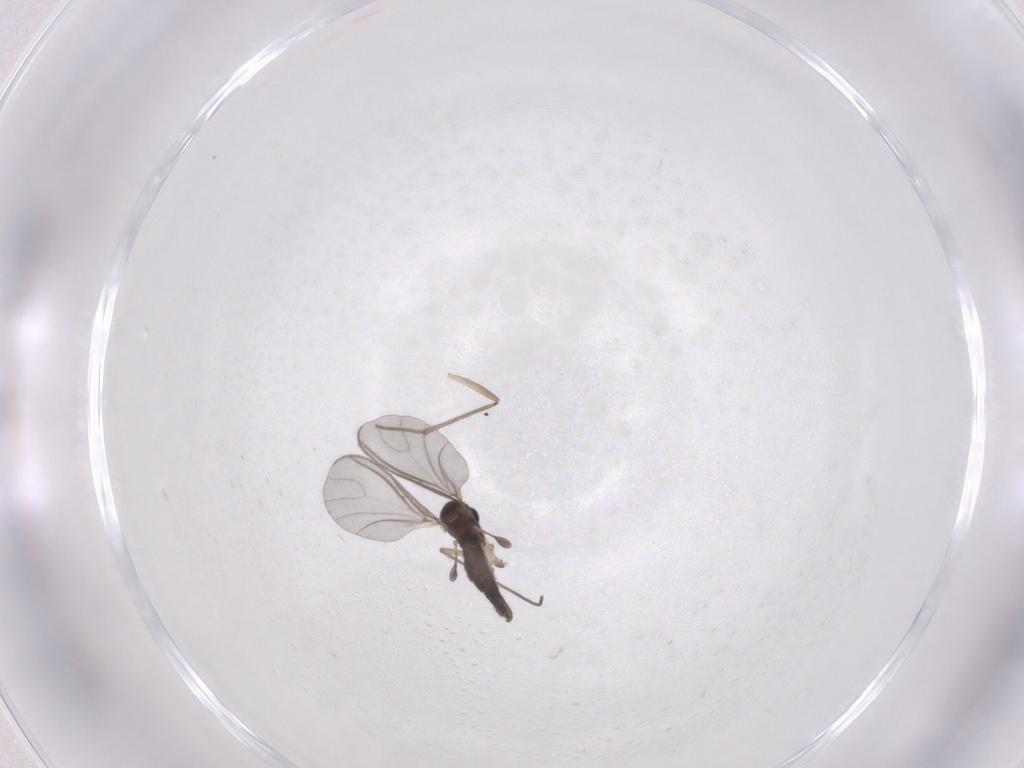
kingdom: Animalia
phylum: Arthropoda
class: Insecta
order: Diptera
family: Sciaridae
